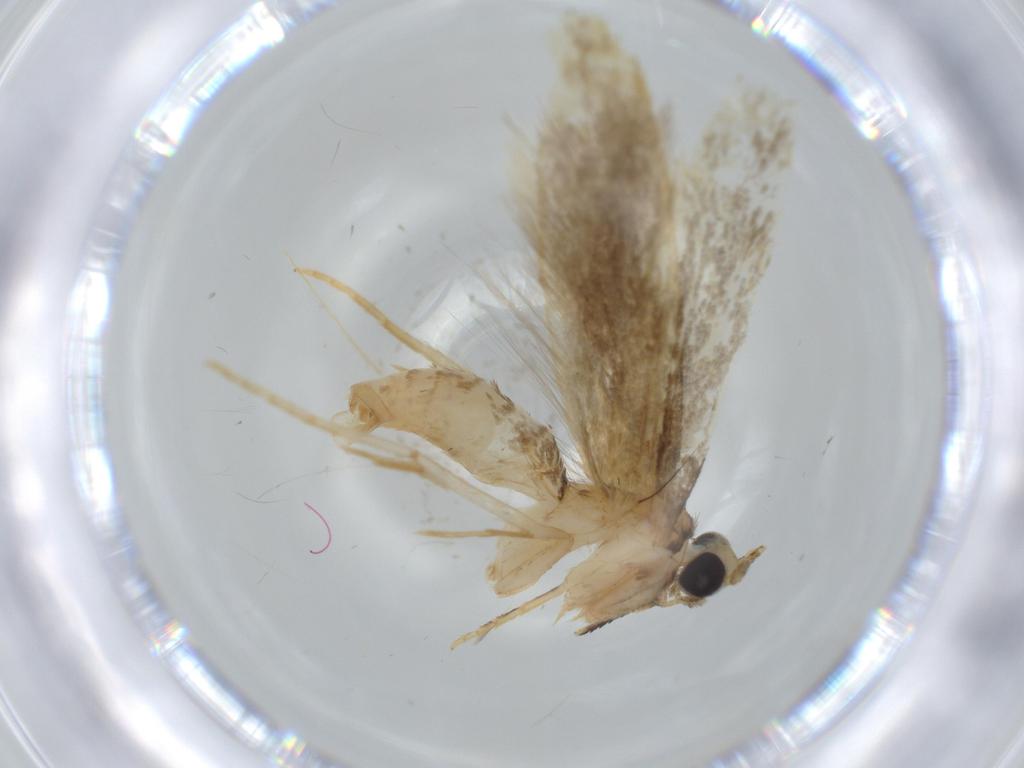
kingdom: Animalia
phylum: Arthropoda
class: Insecta
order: Lepidoptera
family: Tineidae
